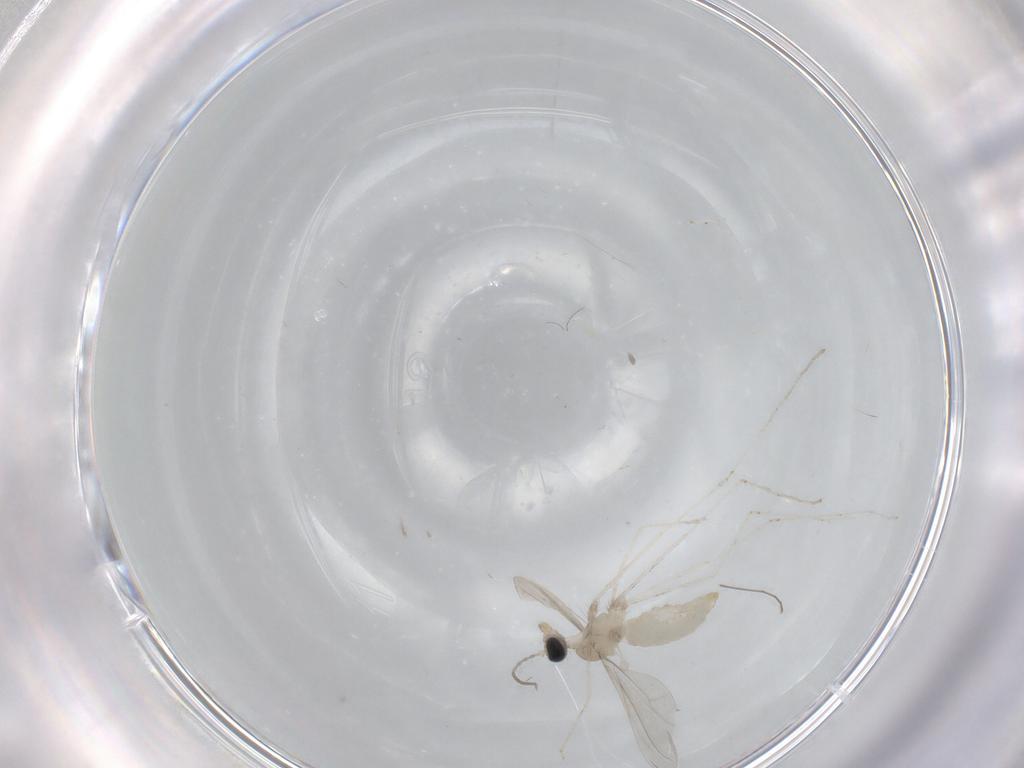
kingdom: Animalia
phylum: Arthropoda
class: Insecta
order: Diptera
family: Cecidomyiidae
